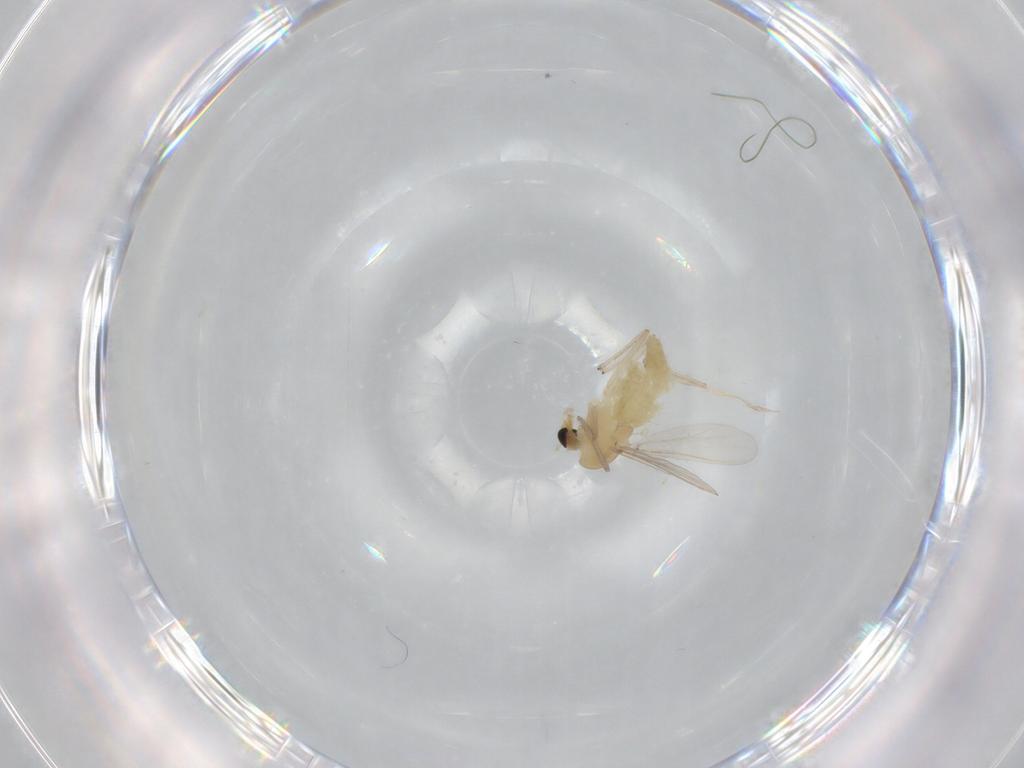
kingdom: Animalia
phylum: Arthropoda
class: Insecta
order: Diptera
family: Chironomidae
